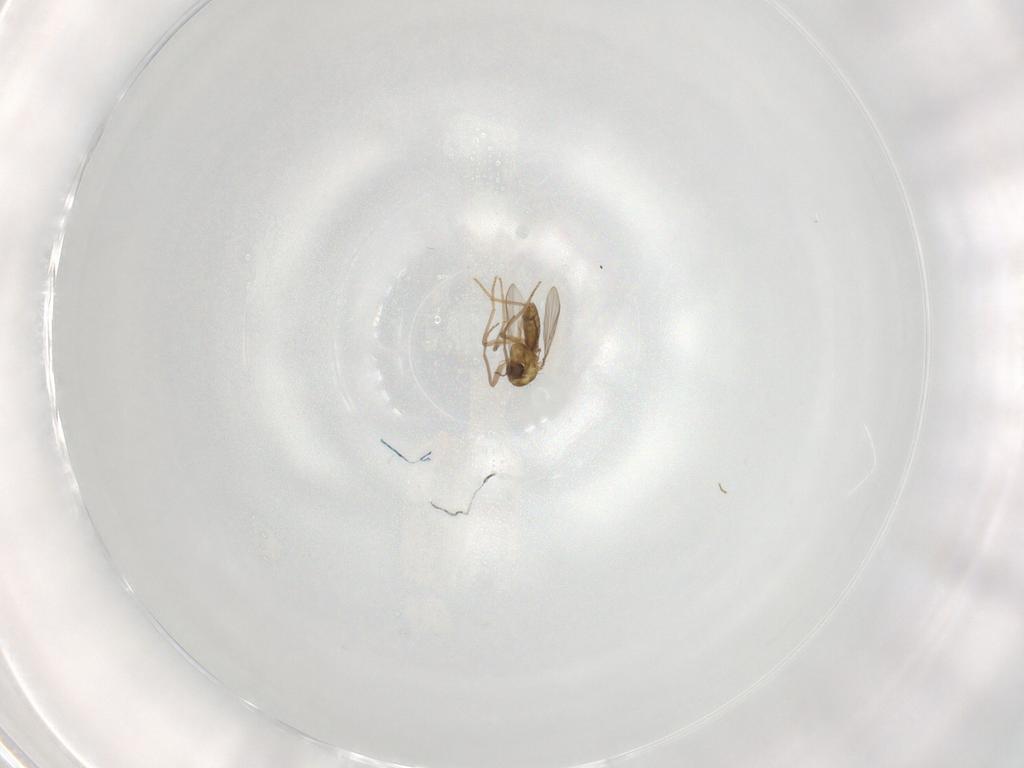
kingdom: Animalia
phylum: Arthropoda
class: Insecta
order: Diptera
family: Chironomidae
